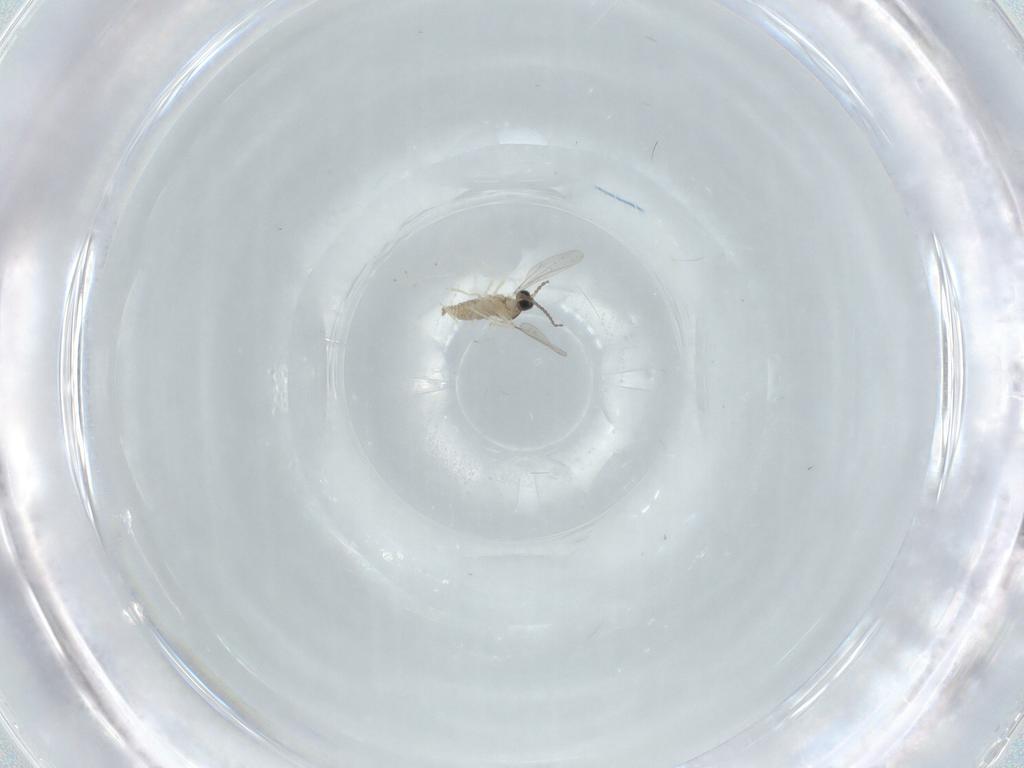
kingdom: Animalia
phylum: Arthropoda
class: Insecta
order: Diptera
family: Cecidomyiidae
